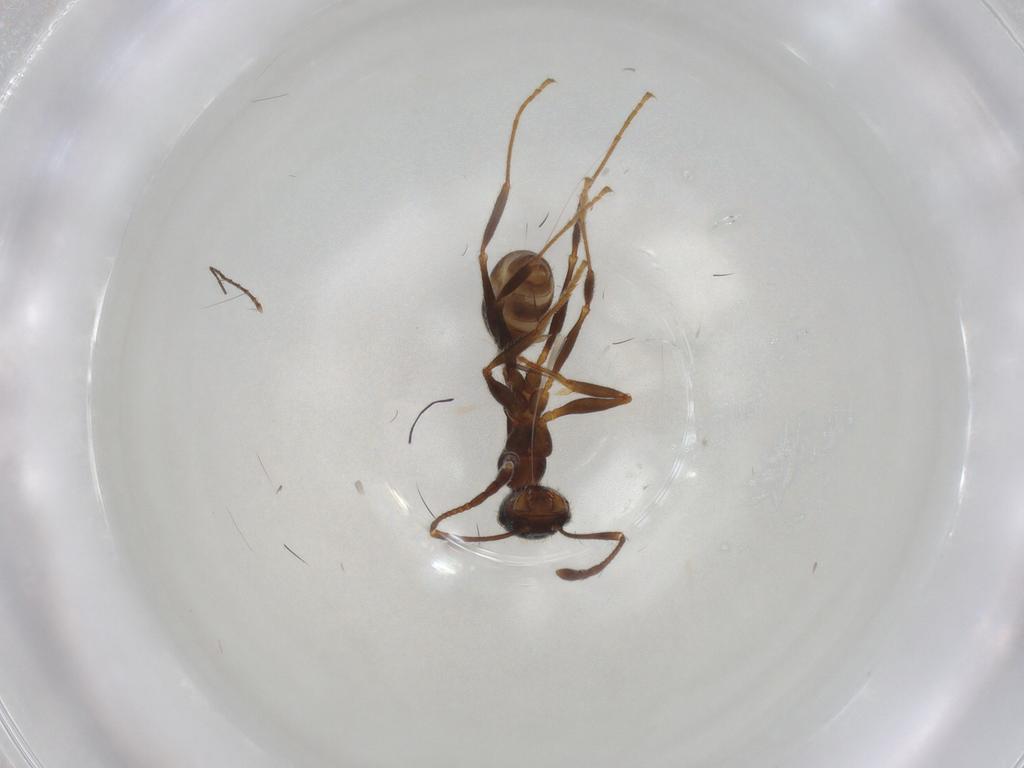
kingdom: Animalia
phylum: Arthropoda
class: Insecta
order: Hymenoptera
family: Formicidae
